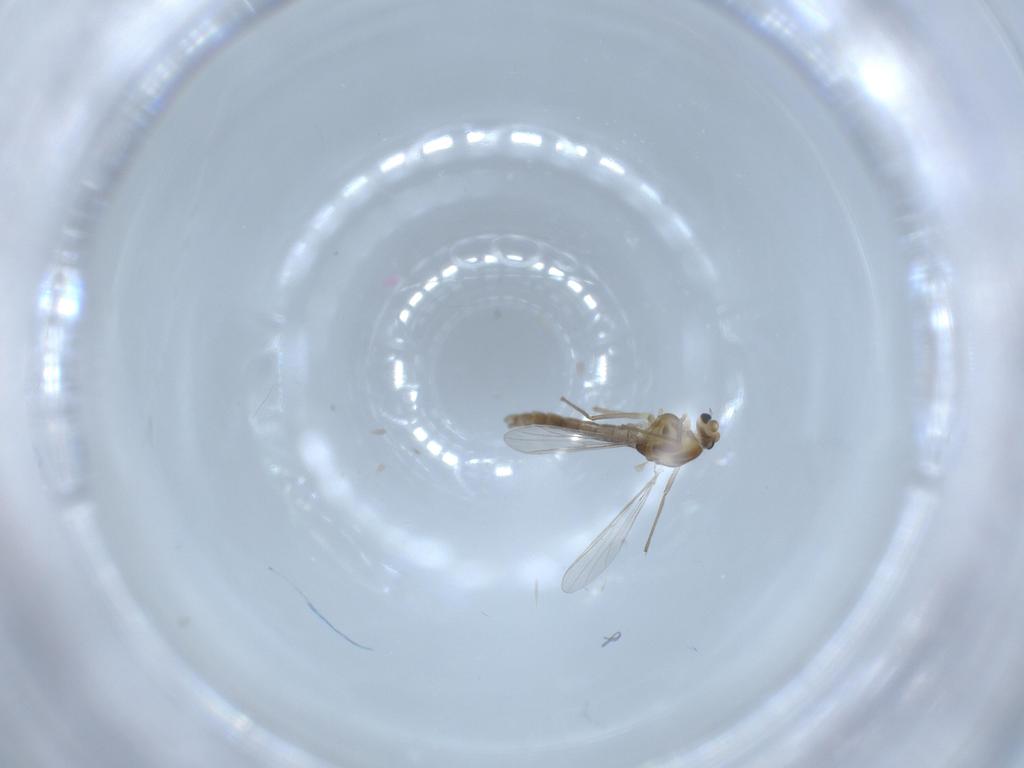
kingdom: Animalia
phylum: Arthropoda
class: Insecta
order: Diptera
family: Chironomidae
